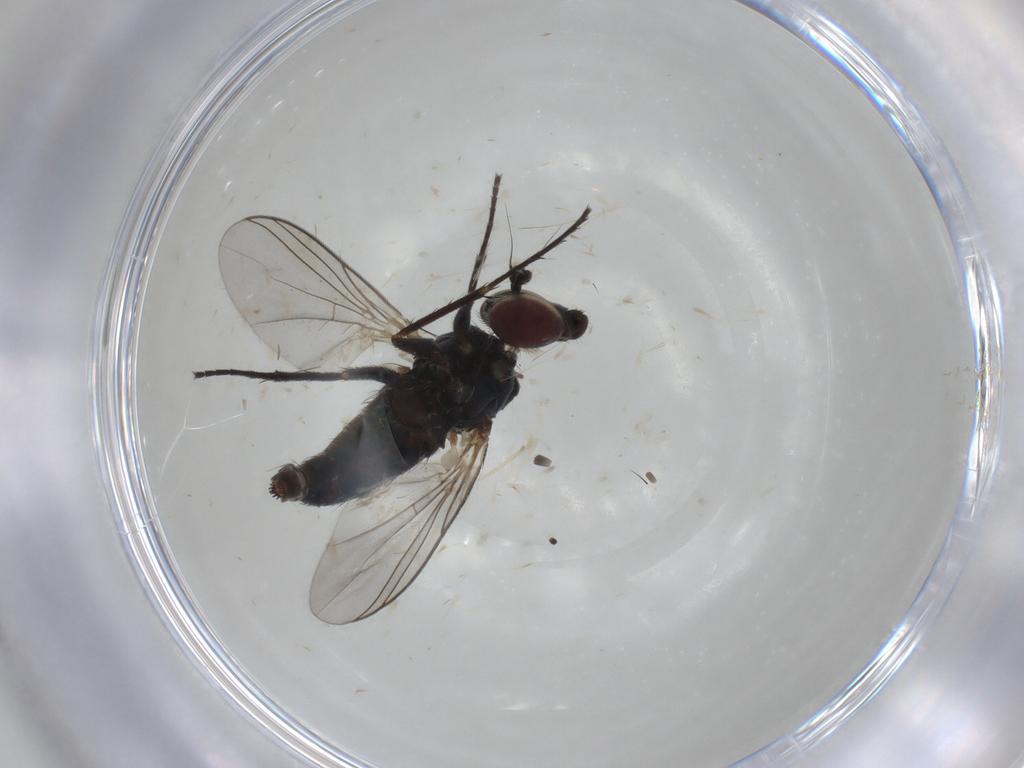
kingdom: Animalia
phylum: Arthropoda
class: Insecta
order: Diptera
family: Dolichopodidae
